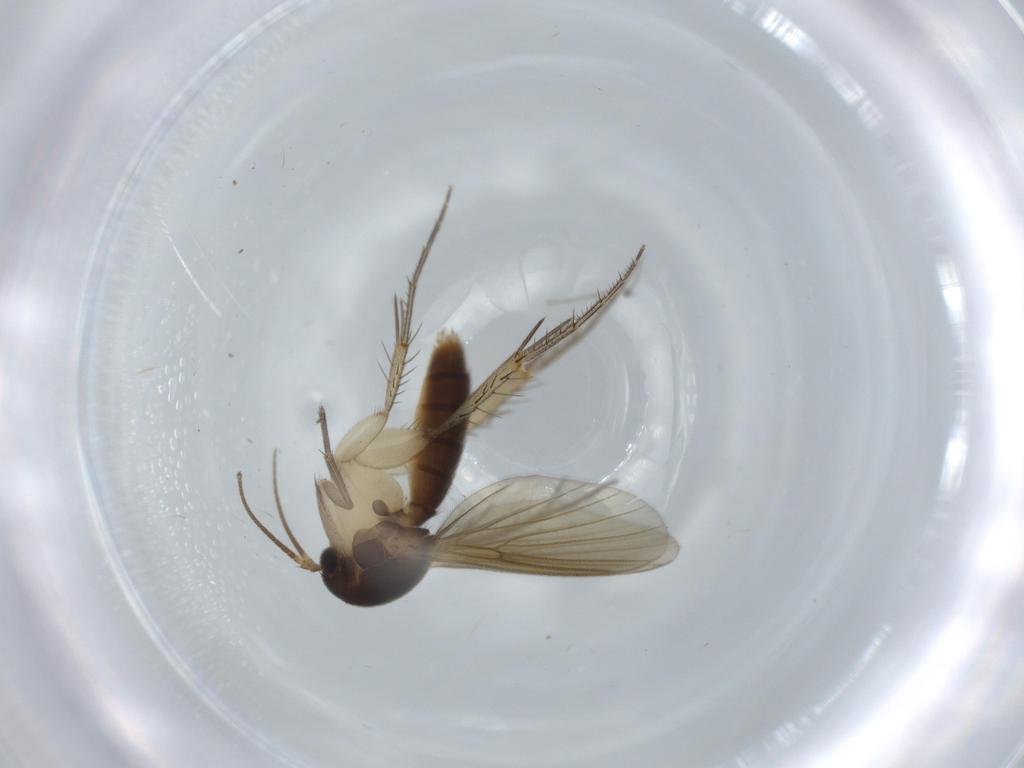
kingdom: Animalia
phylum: Arthropoda
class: Insecta
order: Diptera
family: Mycetophilidae
